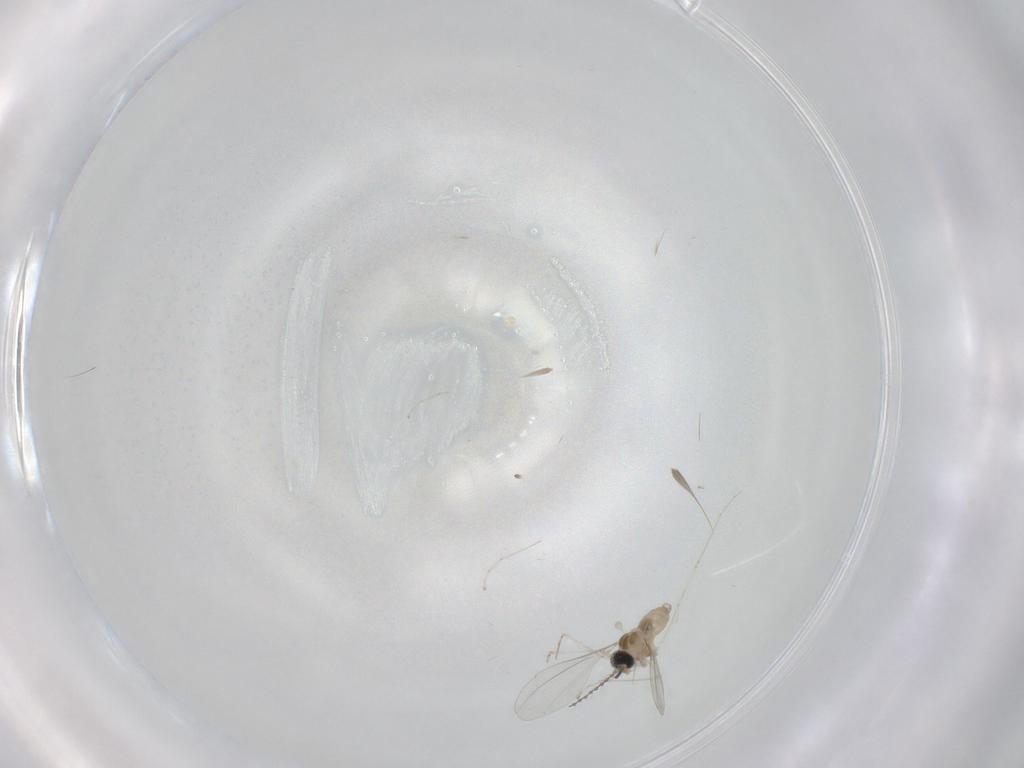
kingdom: Animalia
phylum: Arthropoda
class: Insecta
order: Diptera
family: Cecidomyiidae
